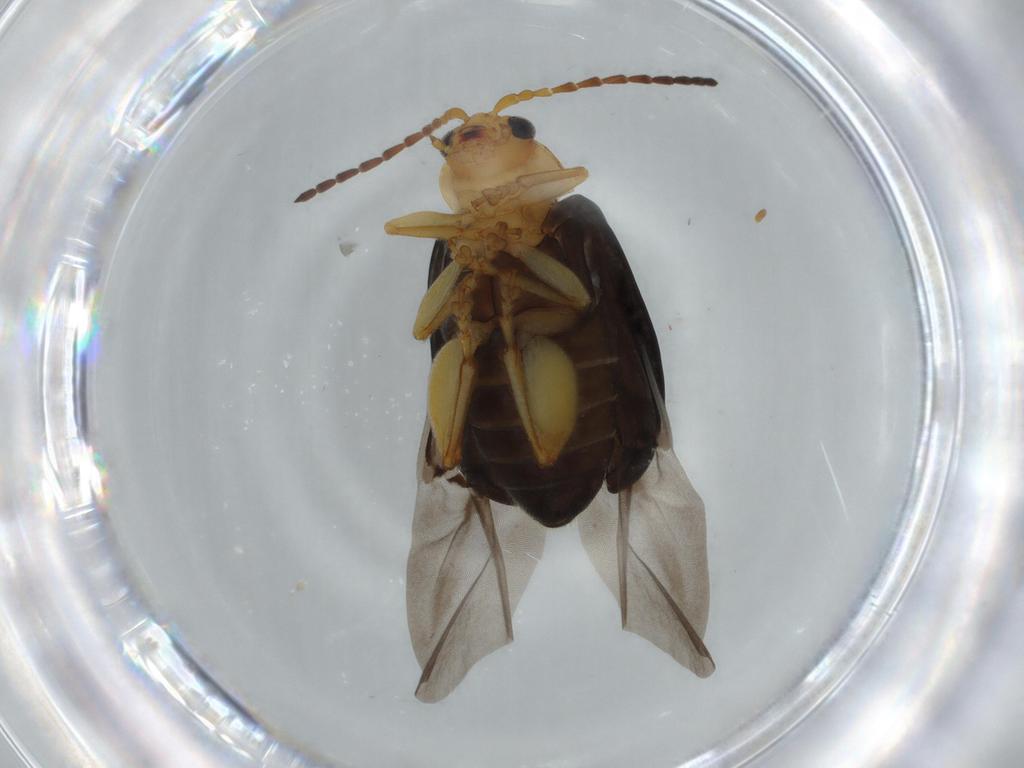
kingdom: Animalia
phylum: Arthropoda
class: Insecta
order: Coleoptera
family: Chrysomelidae
